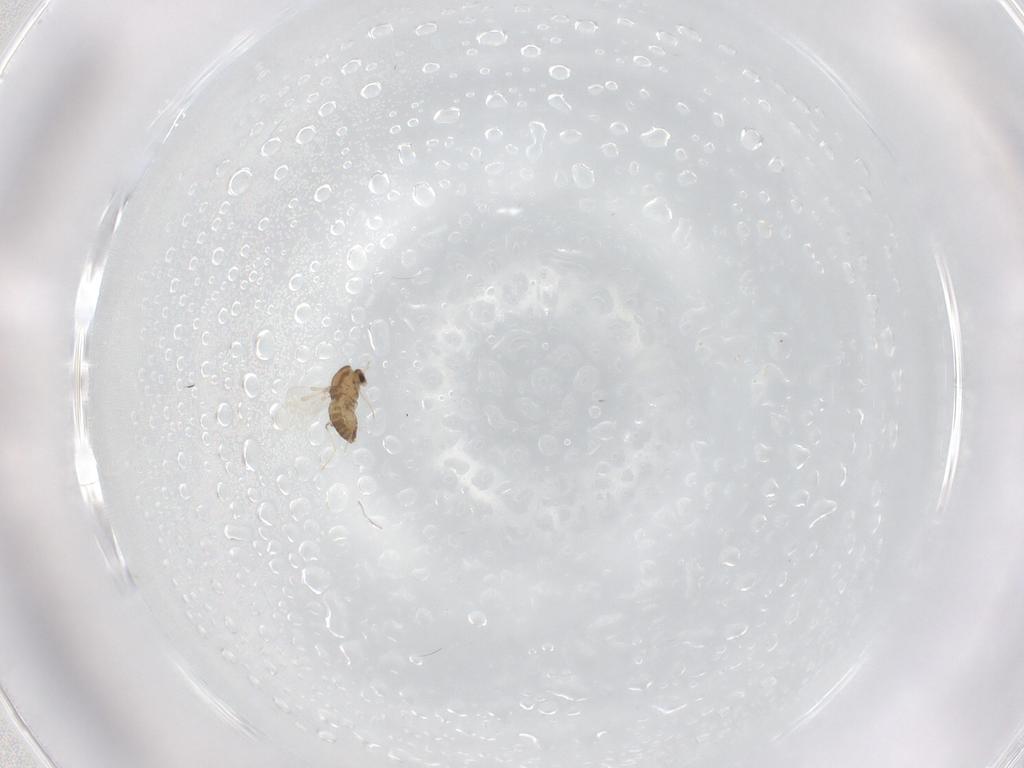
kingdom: Animalia
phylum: Arthropoda
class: Insecta
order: Diptera
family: Chironomidae
